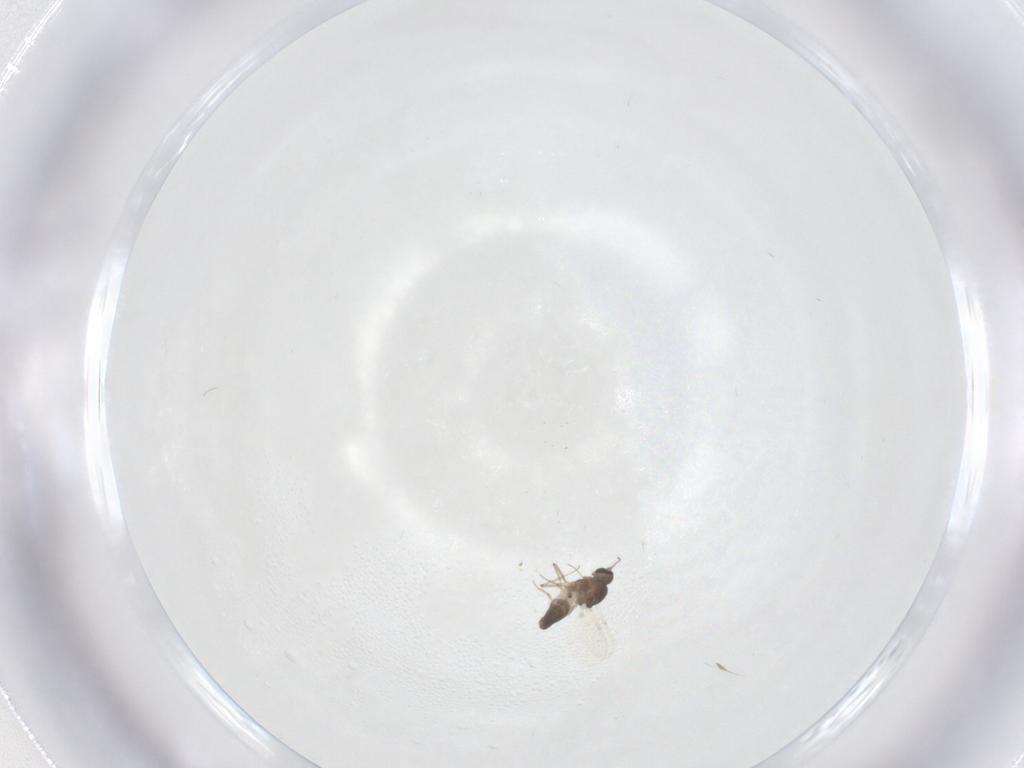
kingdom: Animalia
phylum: Arthropoda
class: Insecta
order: Diptera
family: Ceratopogonidae
